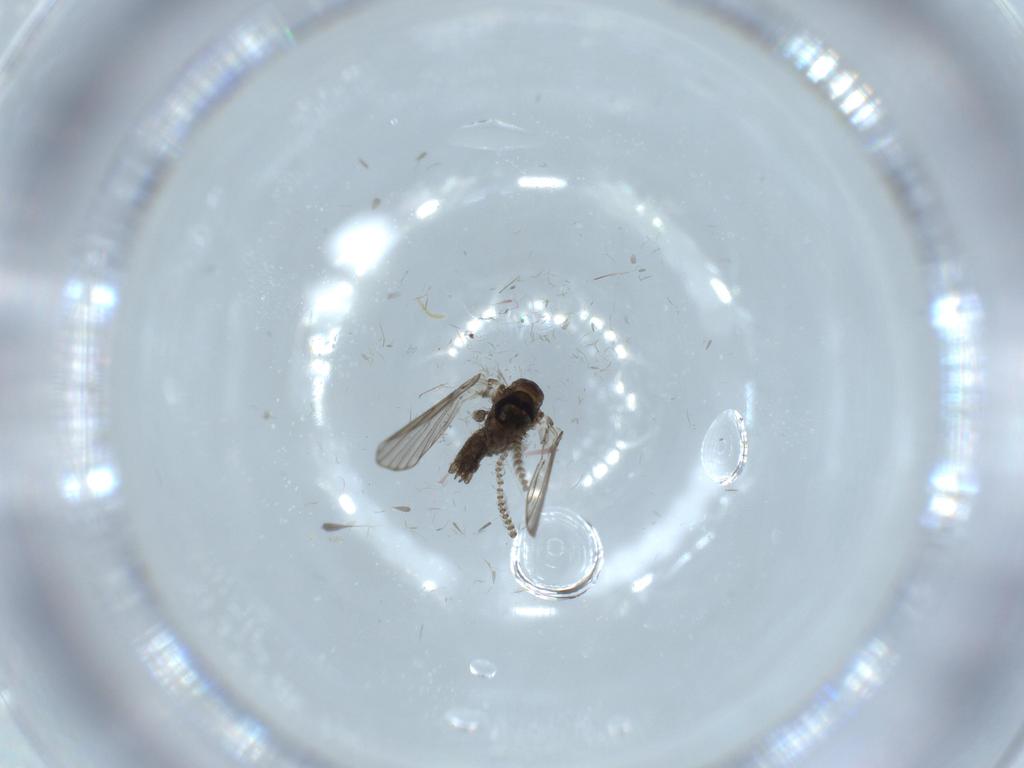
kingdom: Animalia
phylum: Arthropoda
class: Insecta
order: Diptera
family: Psychodidae
